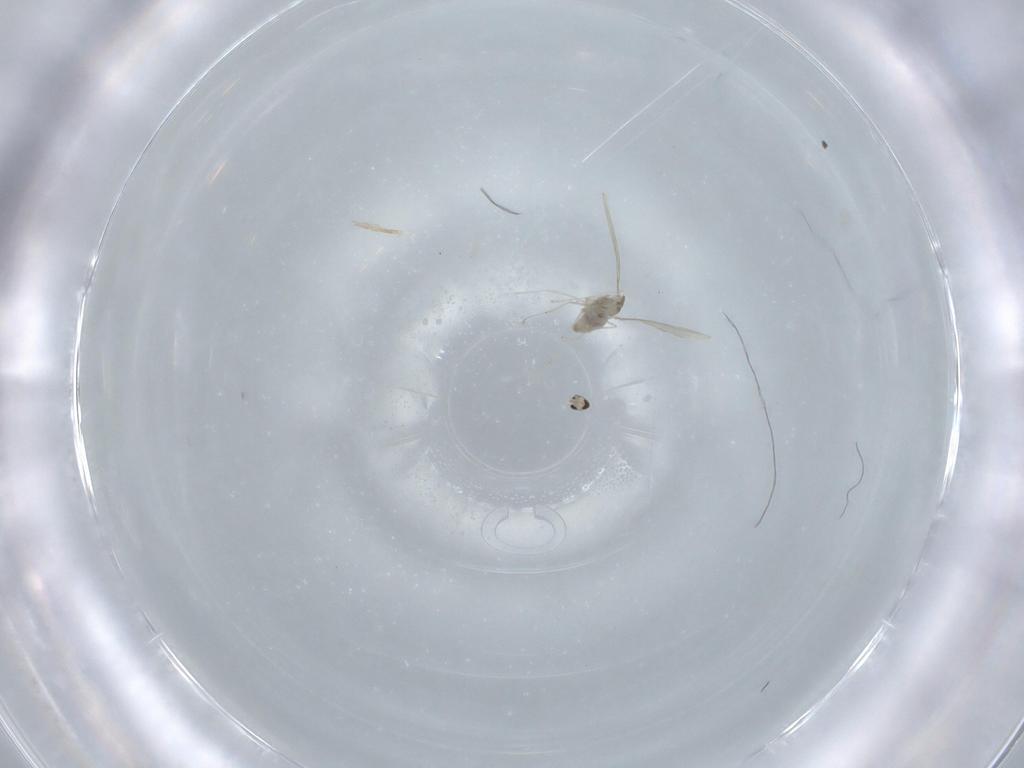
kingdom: Animalia
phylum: Arthropoda
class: Insecta
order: Diptera
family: Cecidomyiidae
